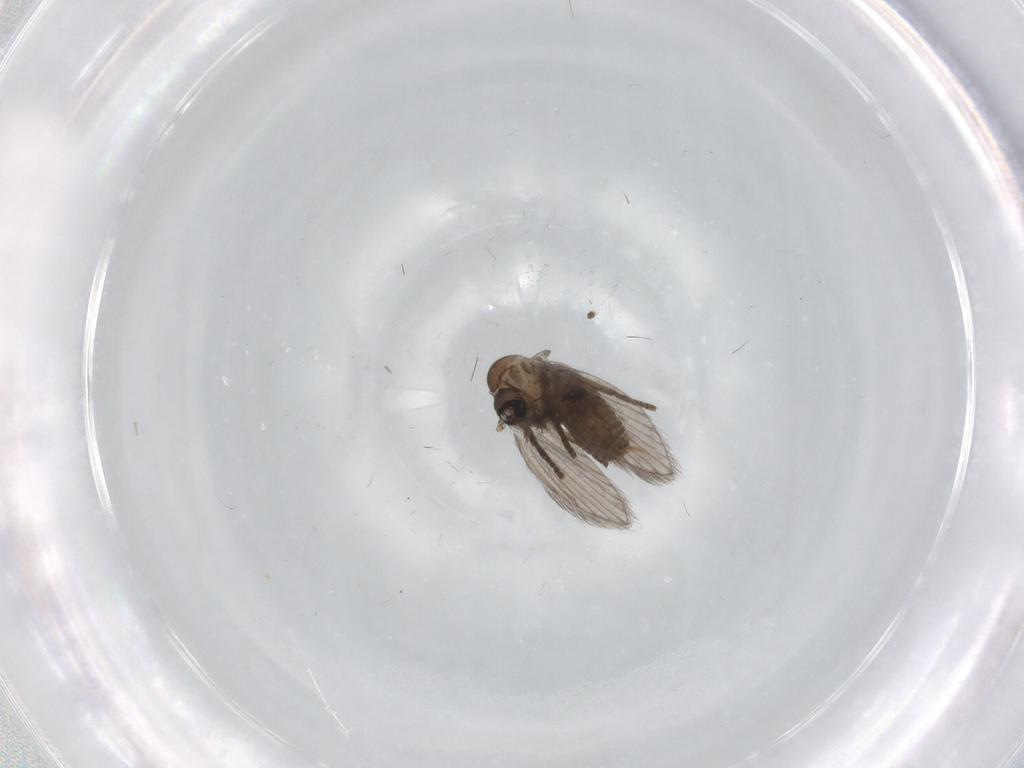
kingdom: Animalia
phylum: Arthropoda
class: Insecta
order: Diptera
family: Chironomidae
